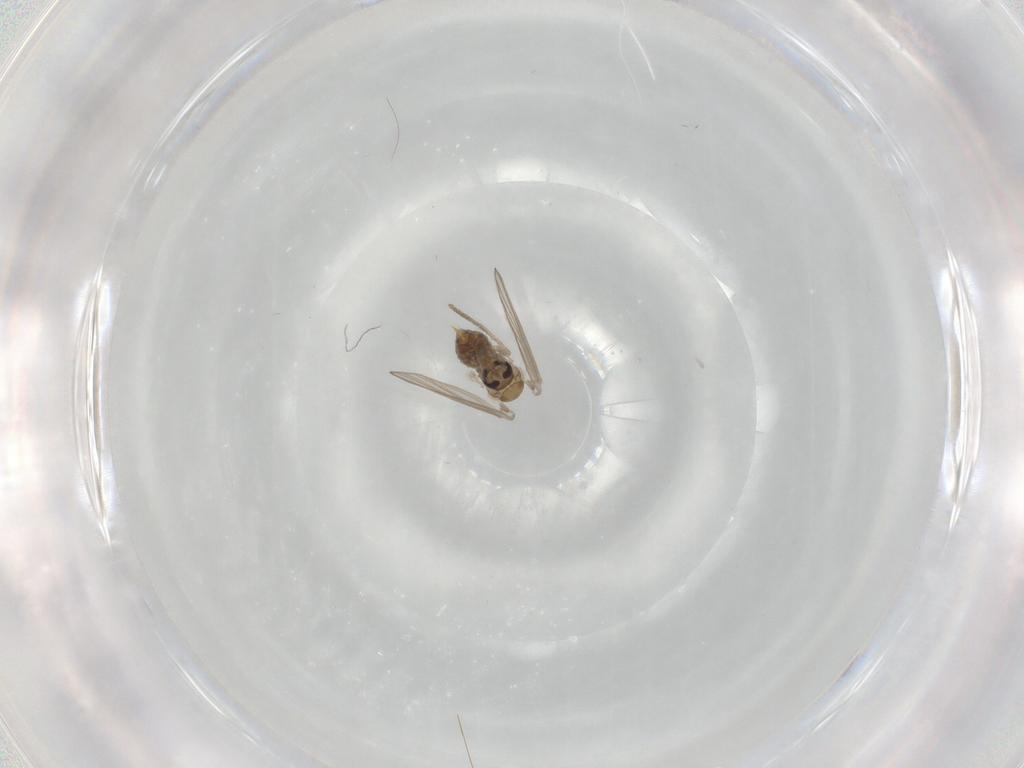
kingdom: Animalia
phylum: Arthropoda
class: Insecta
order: Diptera
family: Psychodidae
